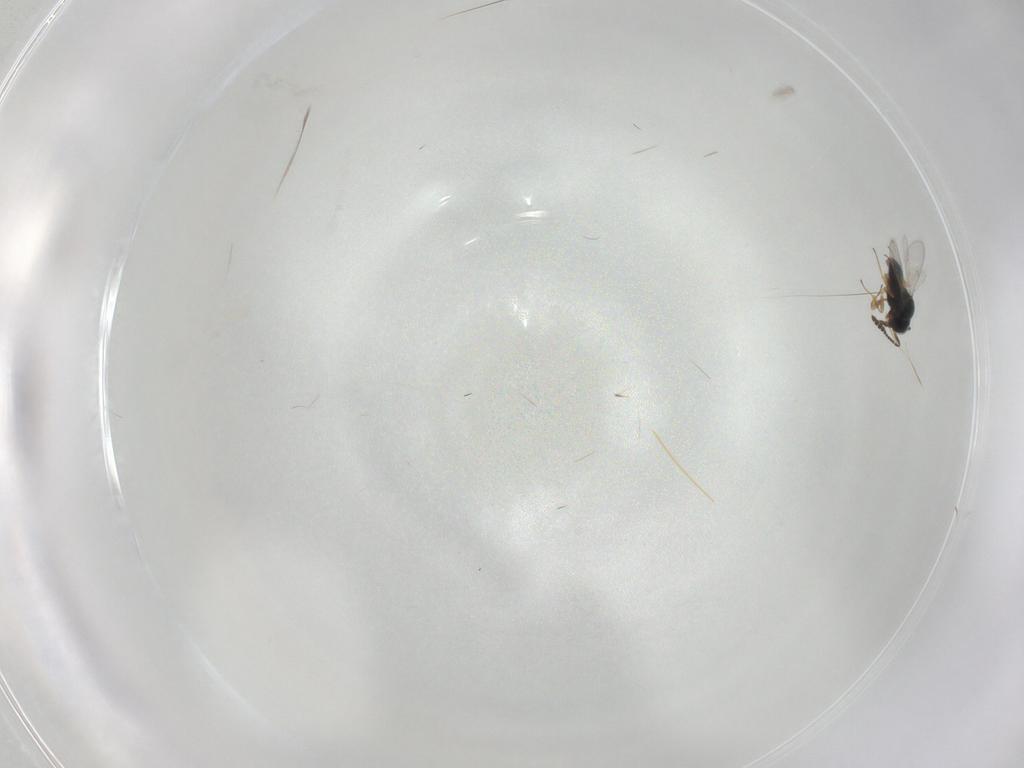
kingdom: Animalia
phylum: Arthropoda
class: Insecta
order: Hymenoptera
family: Scelionidae
